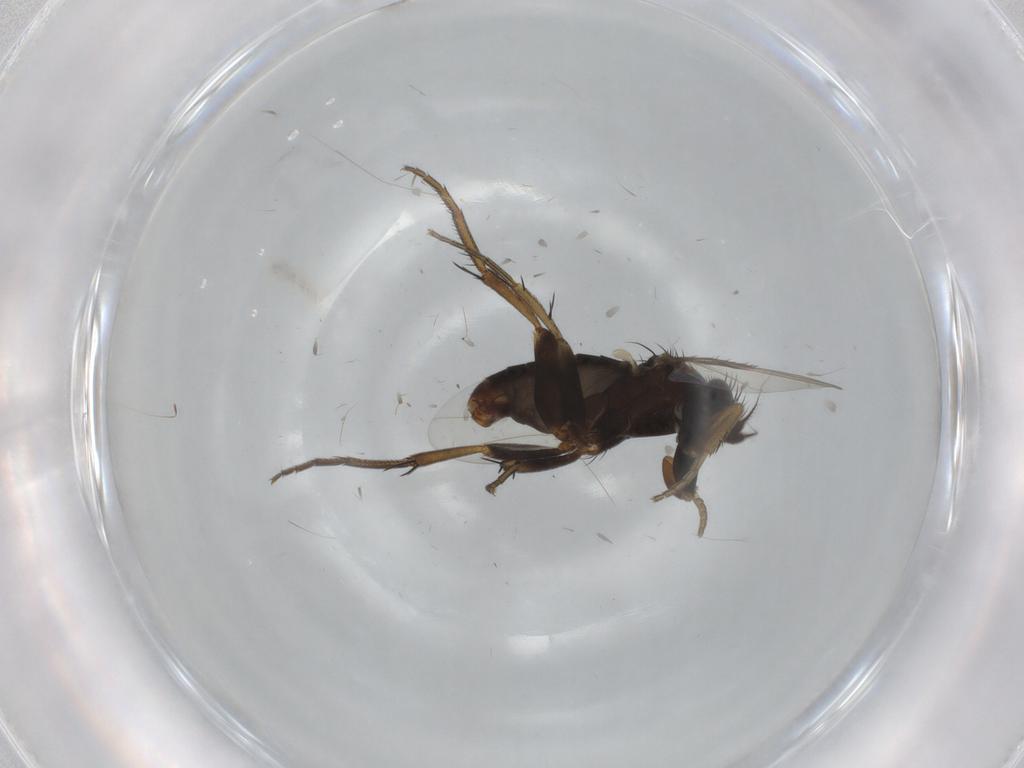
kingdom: Animalia
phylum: Arthropoda
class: Insecta
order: Diptera
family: Phoridae
